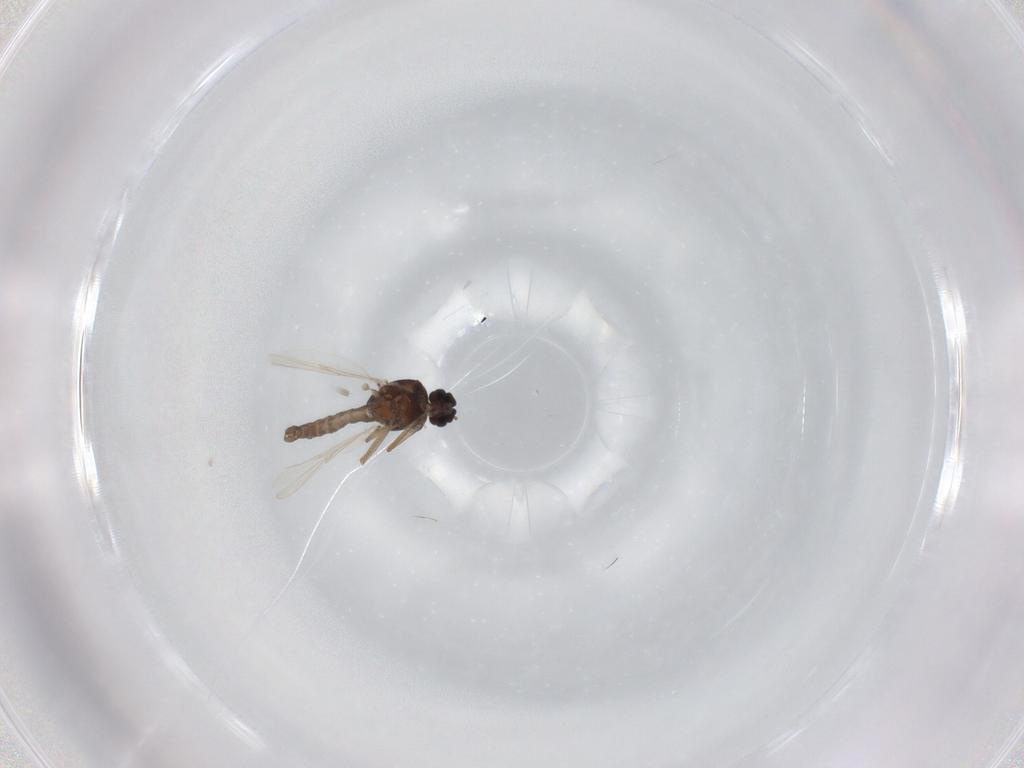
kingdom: Animalia
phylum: Arthropoda
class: Insecta
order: Diptera
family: Ceratopogonidae
